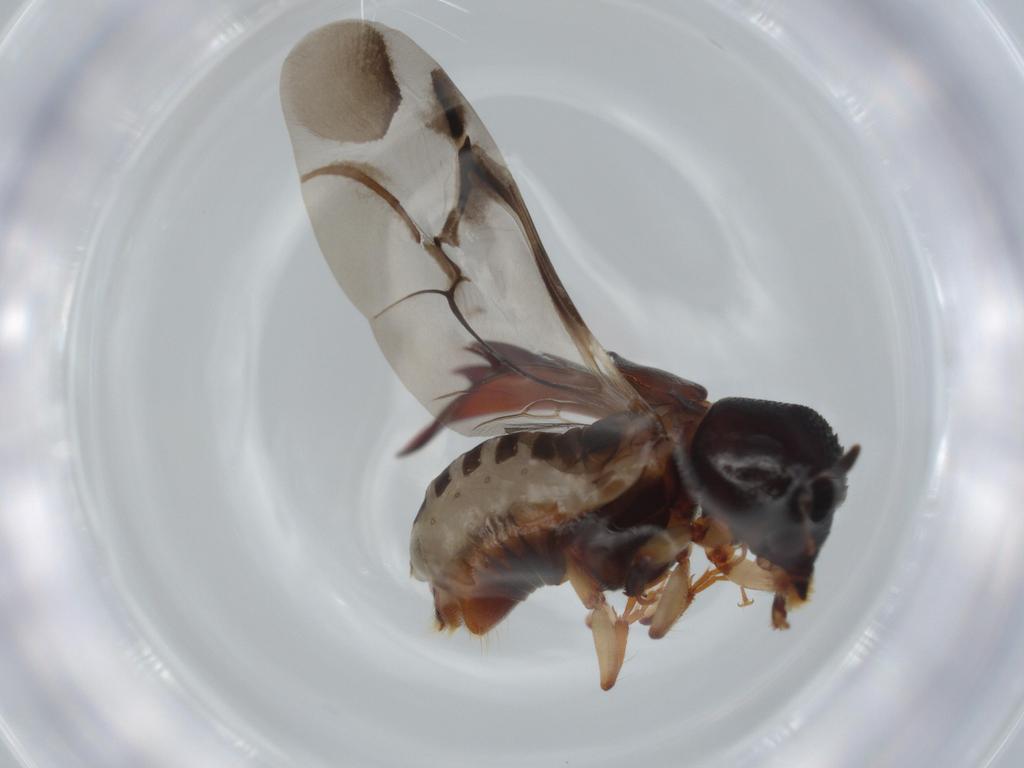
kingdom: Animalia
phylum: Arthropoda
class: Insecta
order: Coleoptera
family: Bostrichidae
